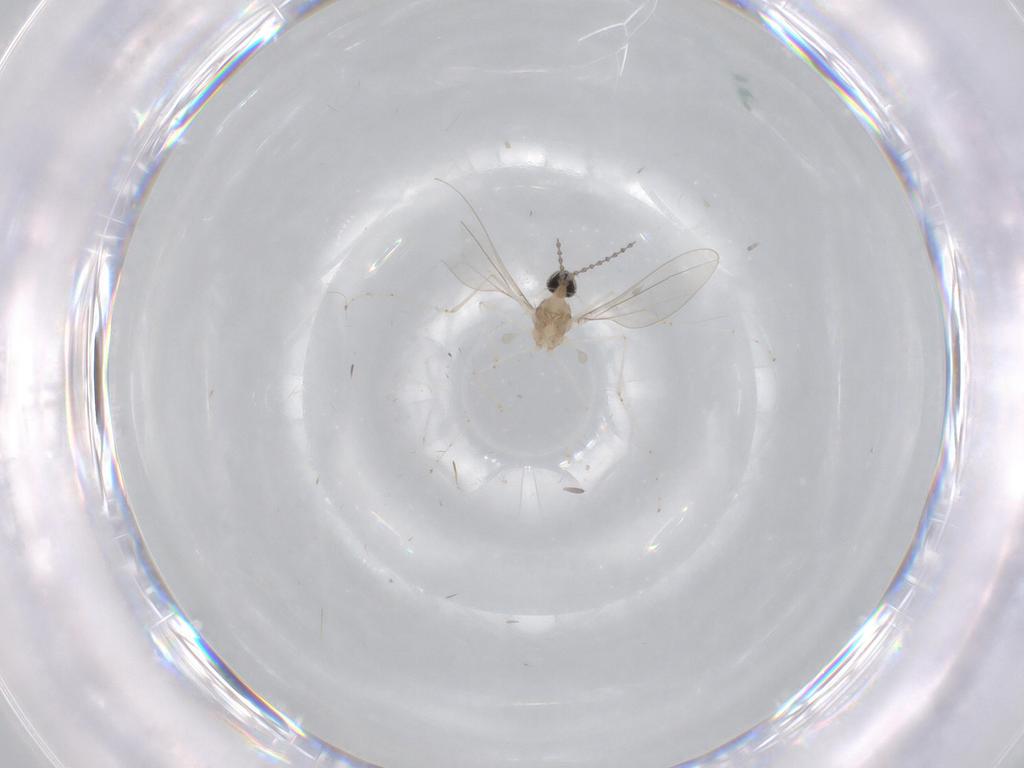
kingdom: Animalia
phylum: Arthropoda
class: Insecta
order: Diptera
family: Cecidomyiidae
